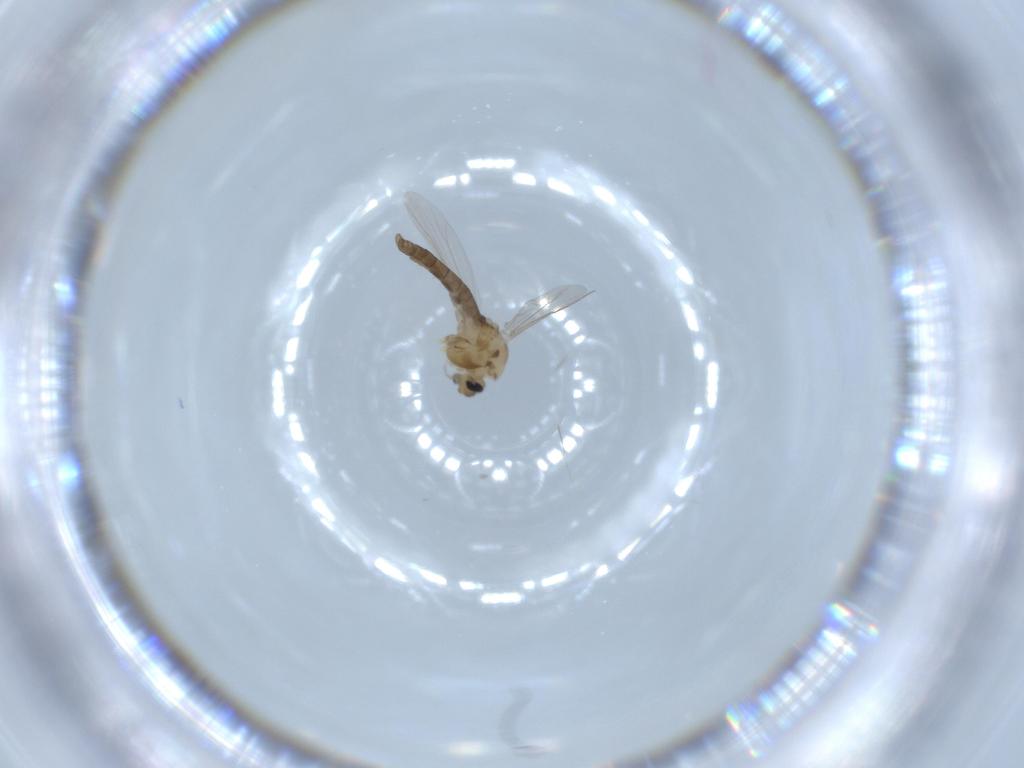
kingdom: Animalia
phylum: Arthropoda
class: Insecta
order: Diptera
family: Chironomidae
